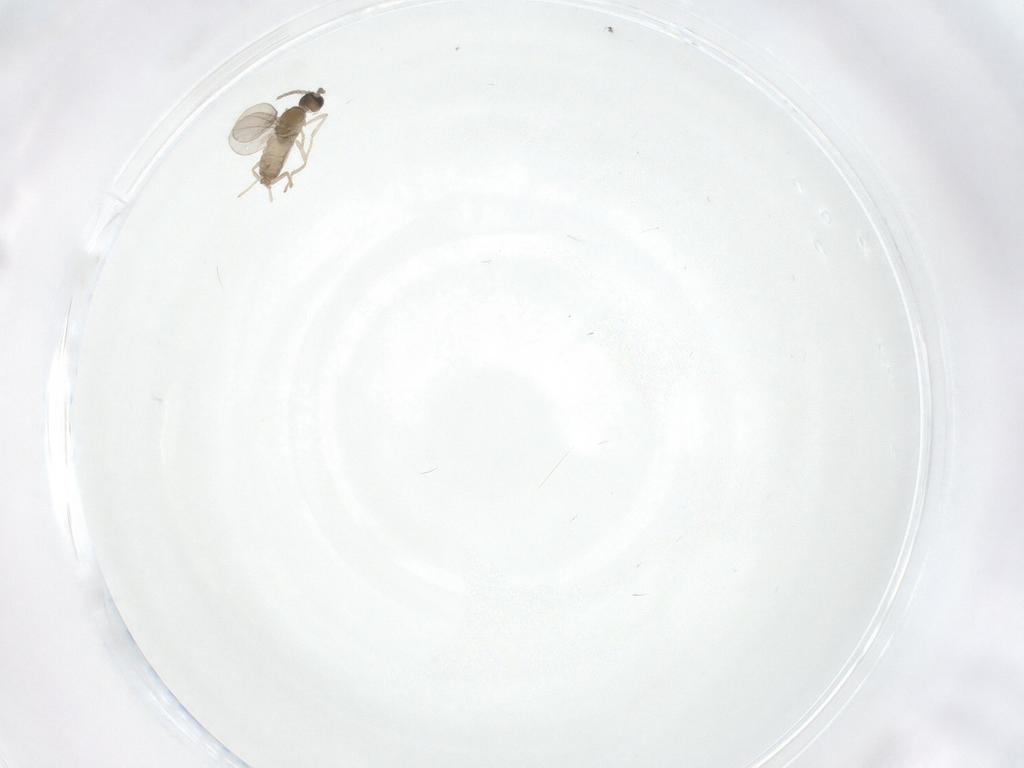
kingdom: Animalia
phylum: Arthropoda
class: Insecta
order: Diptera
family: Cecidomyiidae
